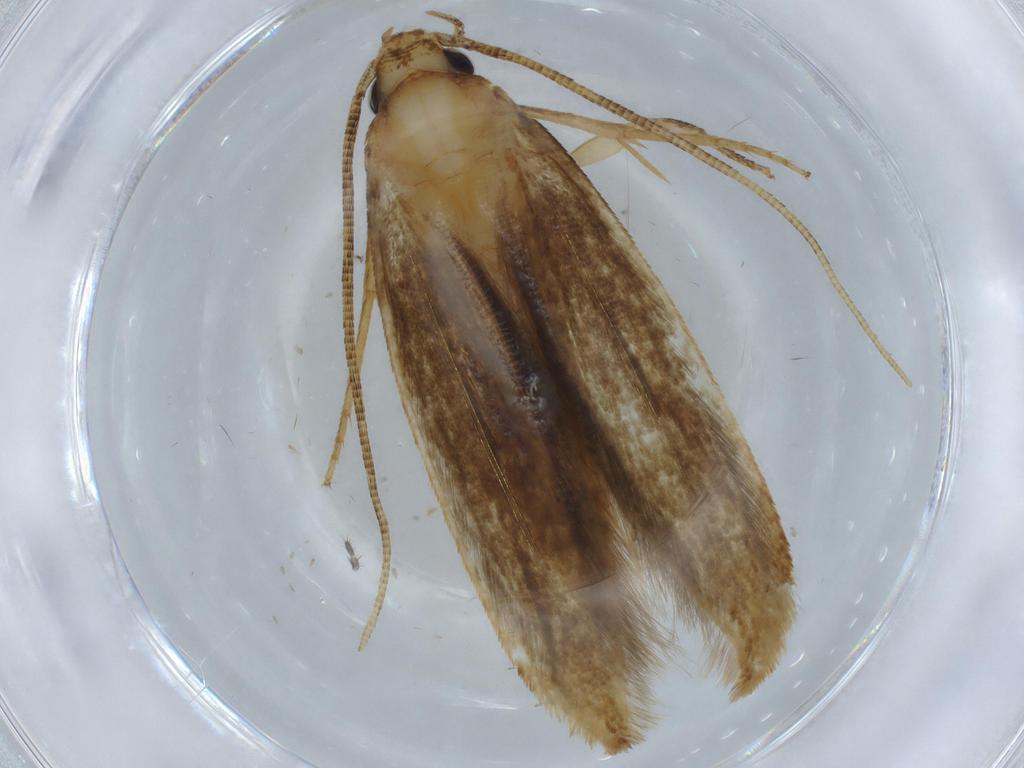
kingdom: Animalia
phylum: Arthropoda
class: Insecta
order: Lepidoptera
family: Tineidae
